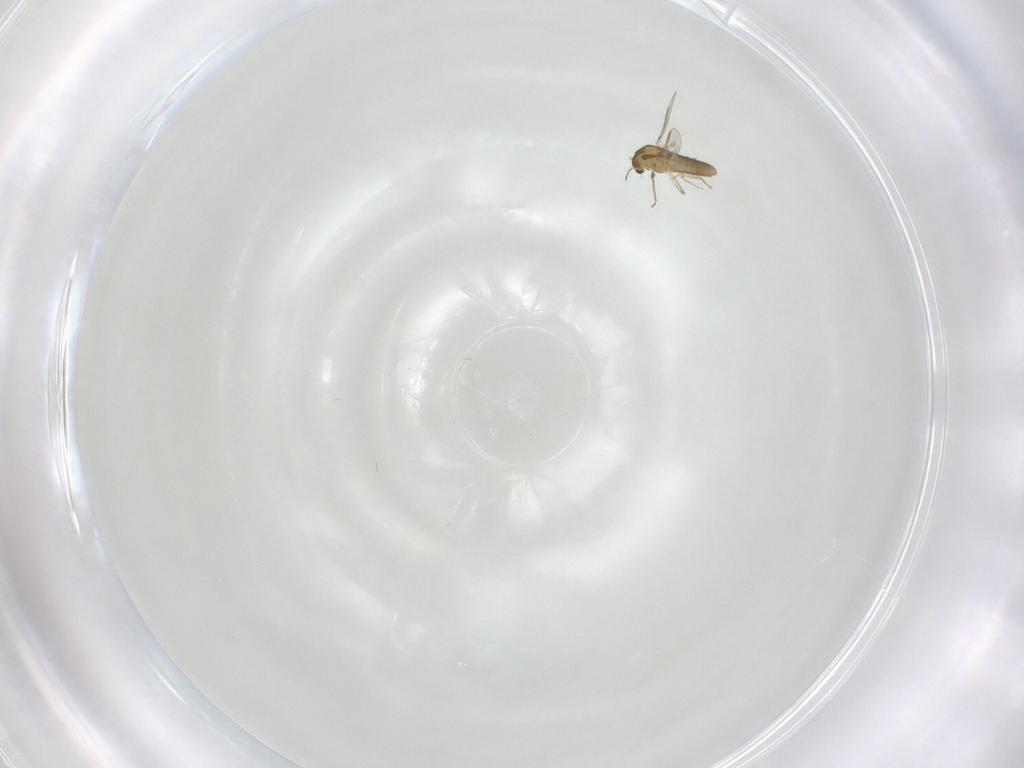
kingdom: Animalia
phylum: Arthropoda
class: Insecta
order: Diptera
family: Chironomidae
